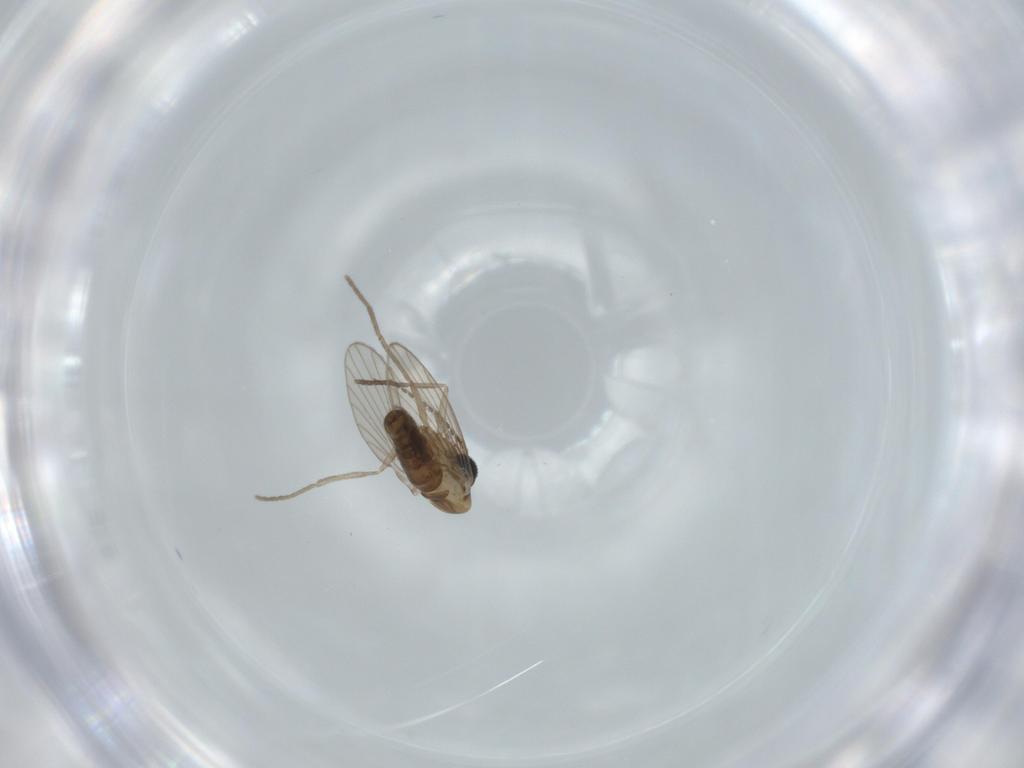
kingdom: Animalia
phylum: Arthropoda
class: Insecta
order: Diptera
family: Psychodidae
